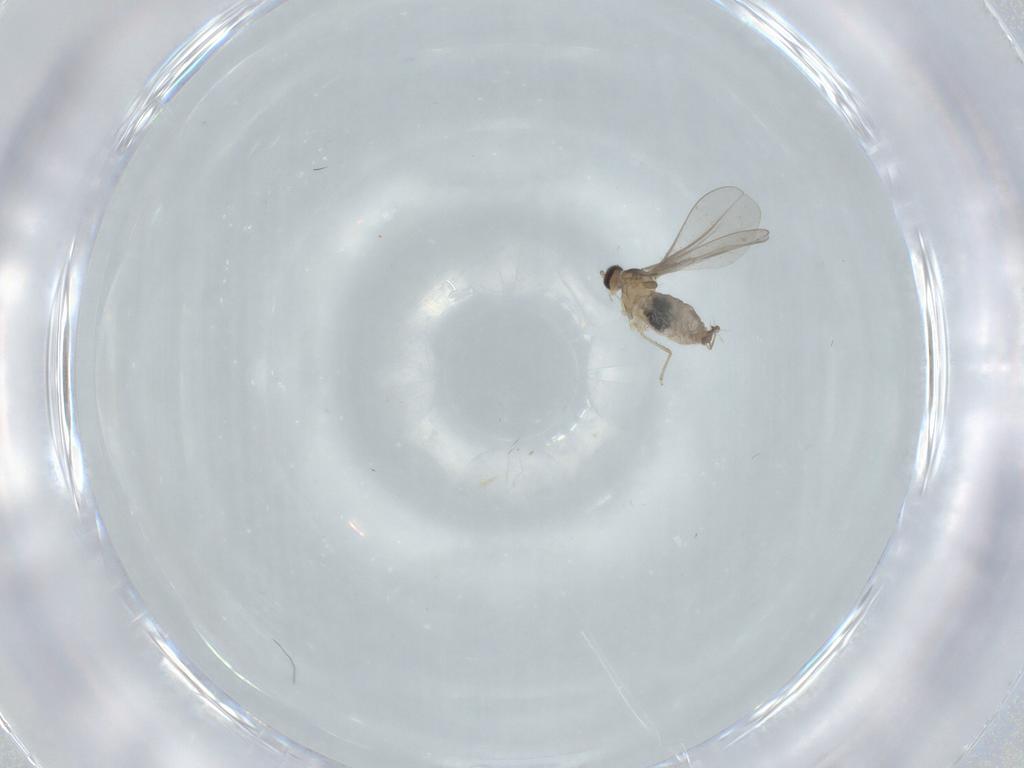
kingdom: Animalia
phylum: Arthropoda
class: Insecta
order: Diptera
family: Cecidomyiidae
